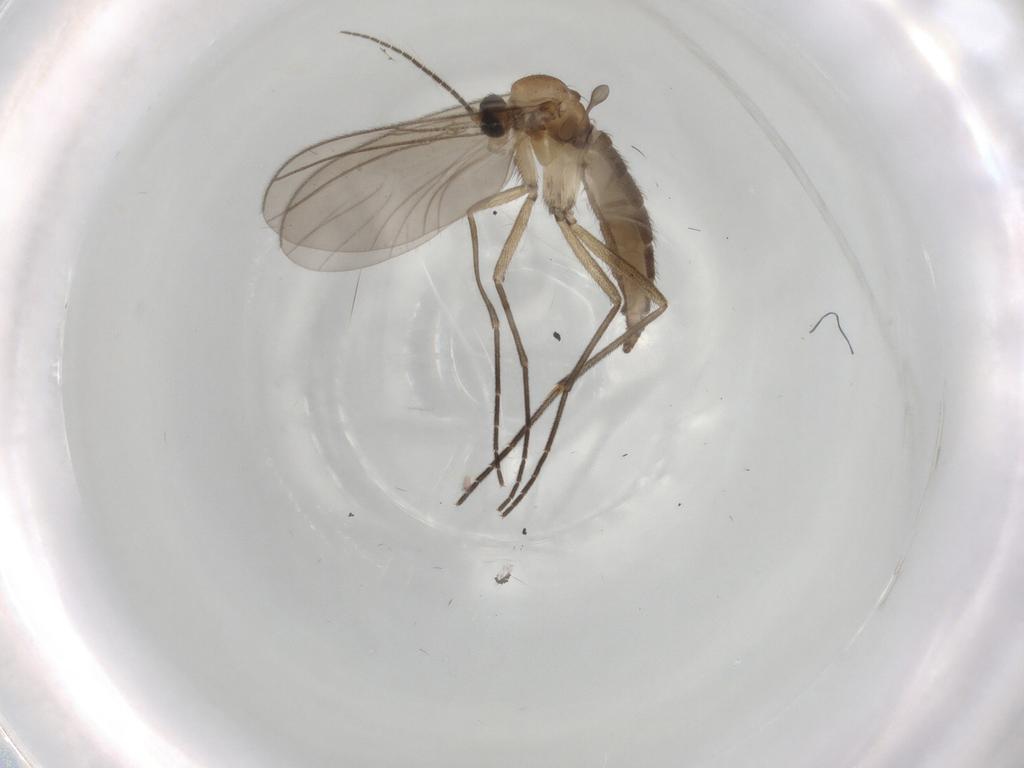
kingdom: Animalia
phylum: Arthropoda
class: Insecta
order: Diptera
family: Sciaridae
